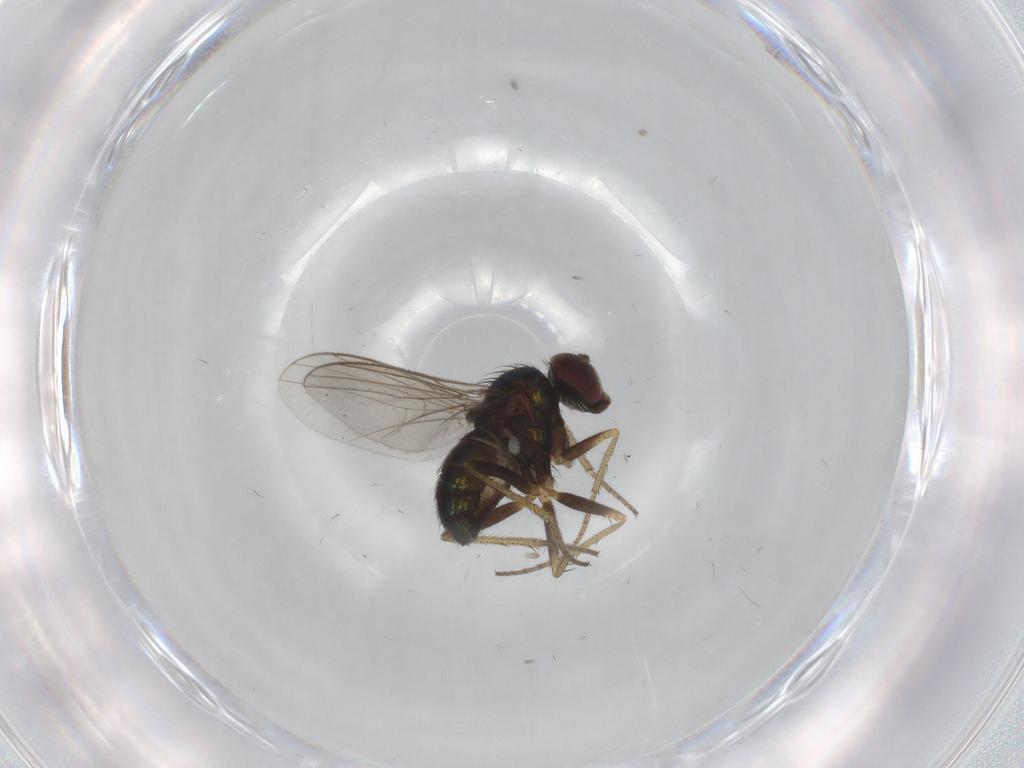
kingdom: Animalia
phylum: Arthropoda
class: Insecta
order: Diptera
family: Dolichopodidae
